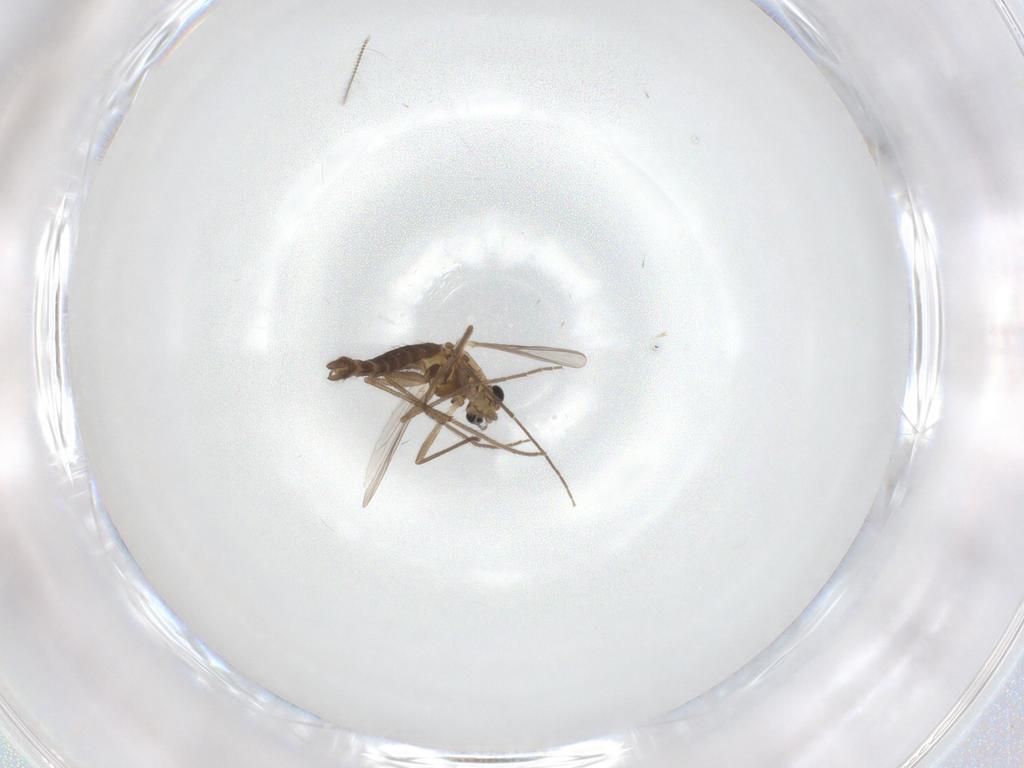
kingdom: Animalia
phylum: Arthropoda
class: Insecta
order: Diptera
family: Chironomidae
